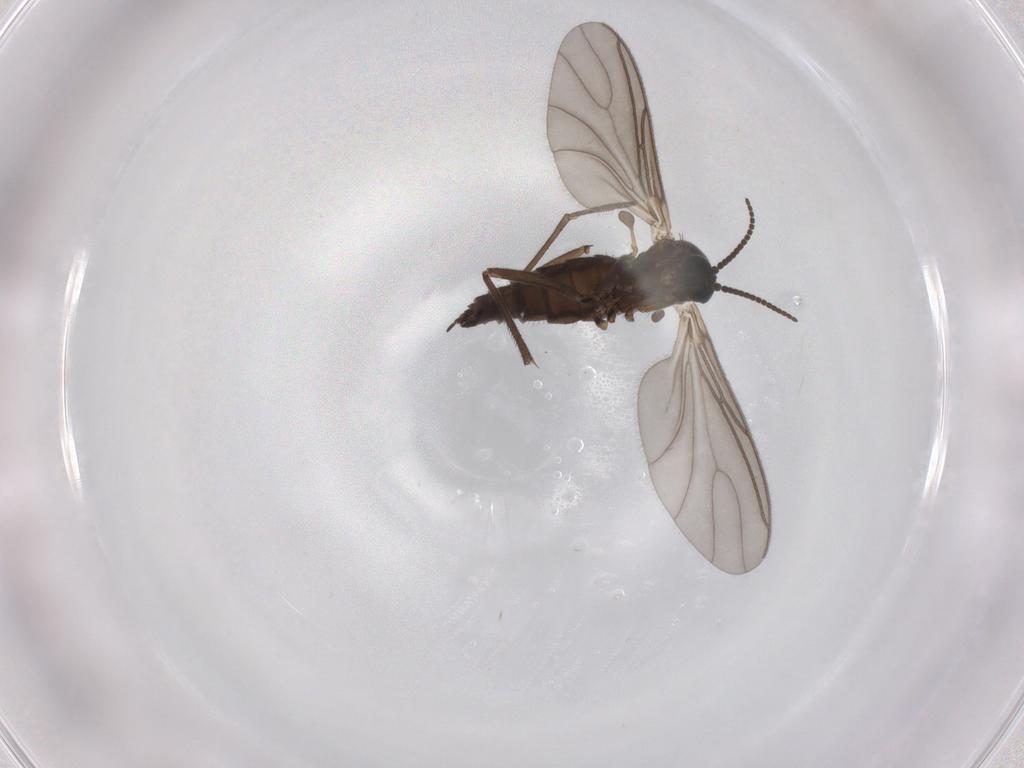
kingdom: Animalia
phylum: Arthropoda
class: Insecta
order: Diptera
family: Sciaridae
